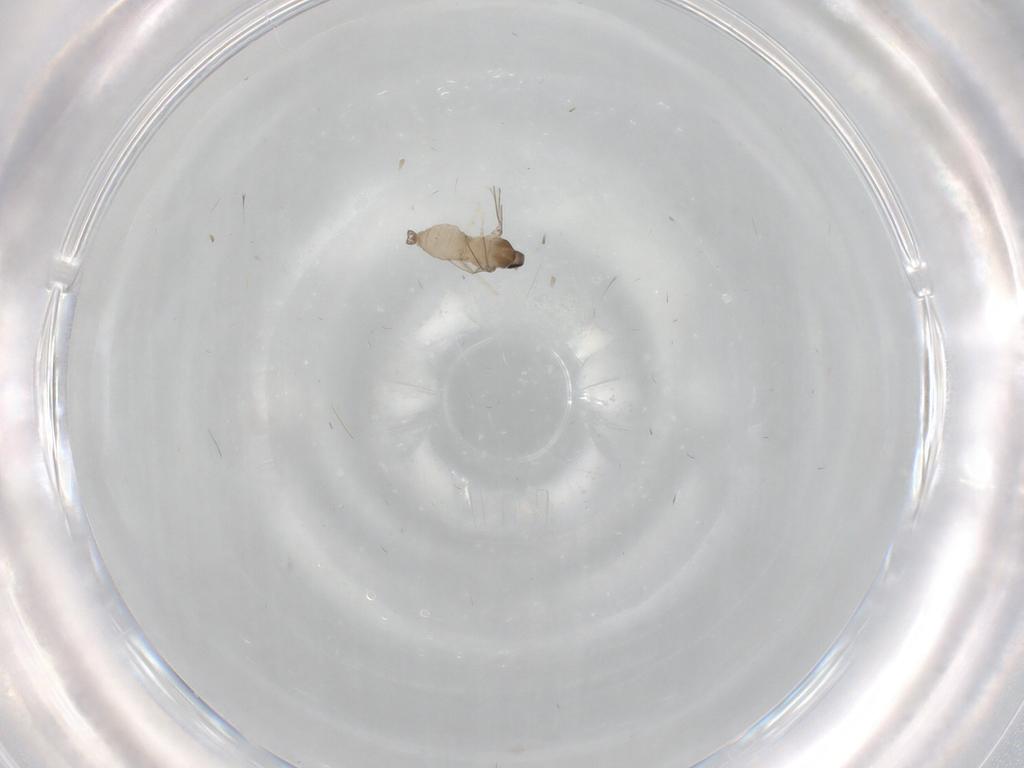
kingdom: Animalia
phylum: Arthropoda
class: Insecta
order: Diptera
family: Cecidomyiidae
